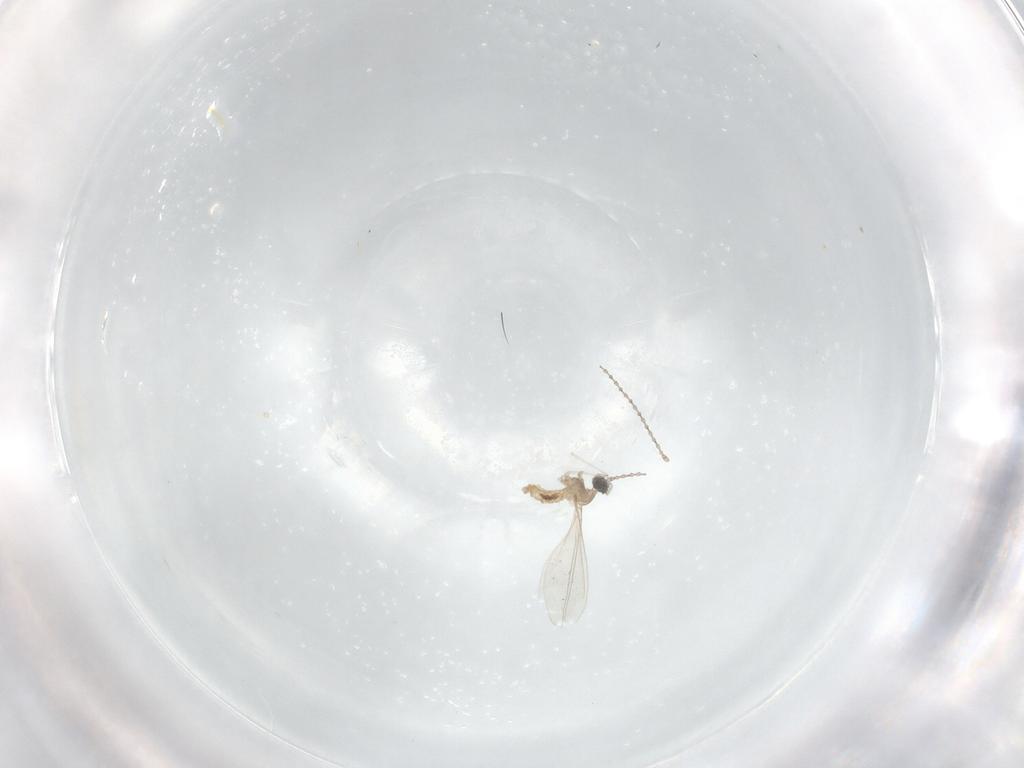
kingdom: Animalia
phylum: Arthropoda
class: Insecta
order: Diptera
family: Cecidomyiidae
